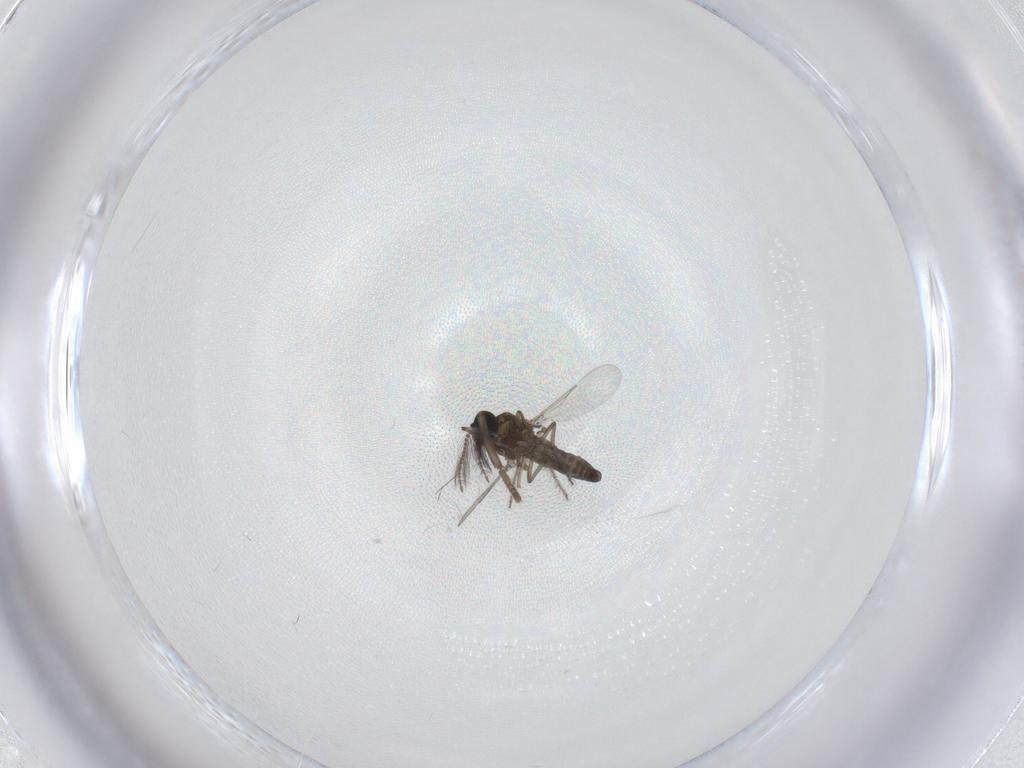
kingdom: Animalia
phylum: Arthropoda
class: Insecta
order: Diptera
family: Ceratopogonidae
